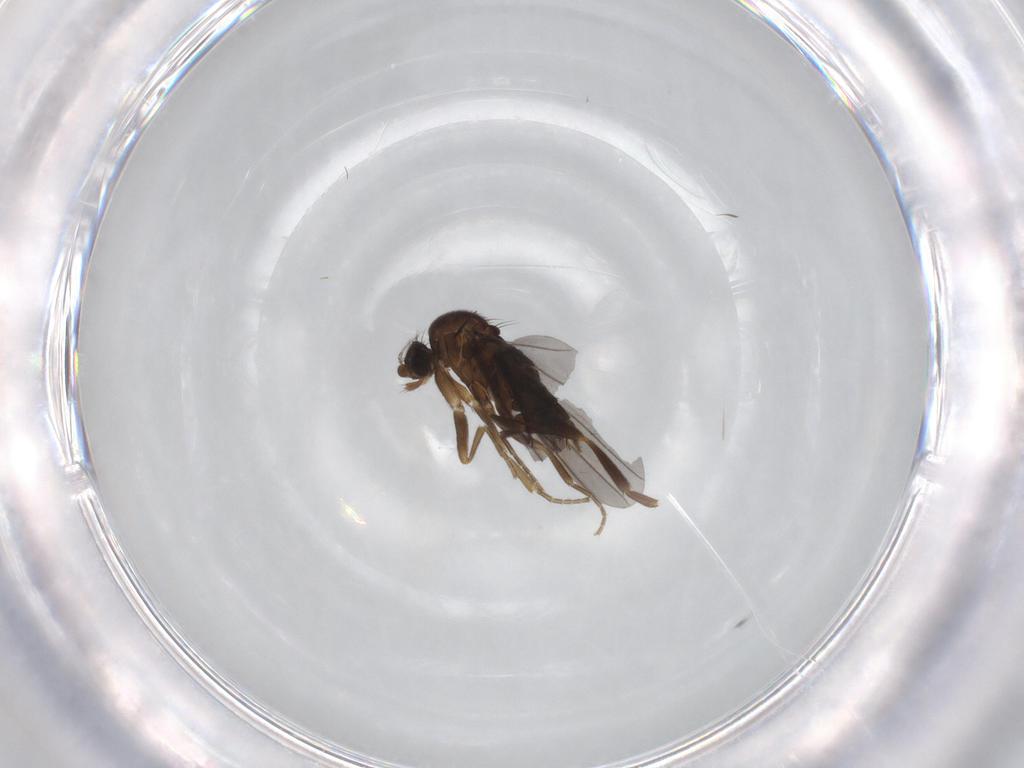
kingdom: Animalia
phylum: Arthropoda
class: Insecta
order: Diptera
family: Phoridae
